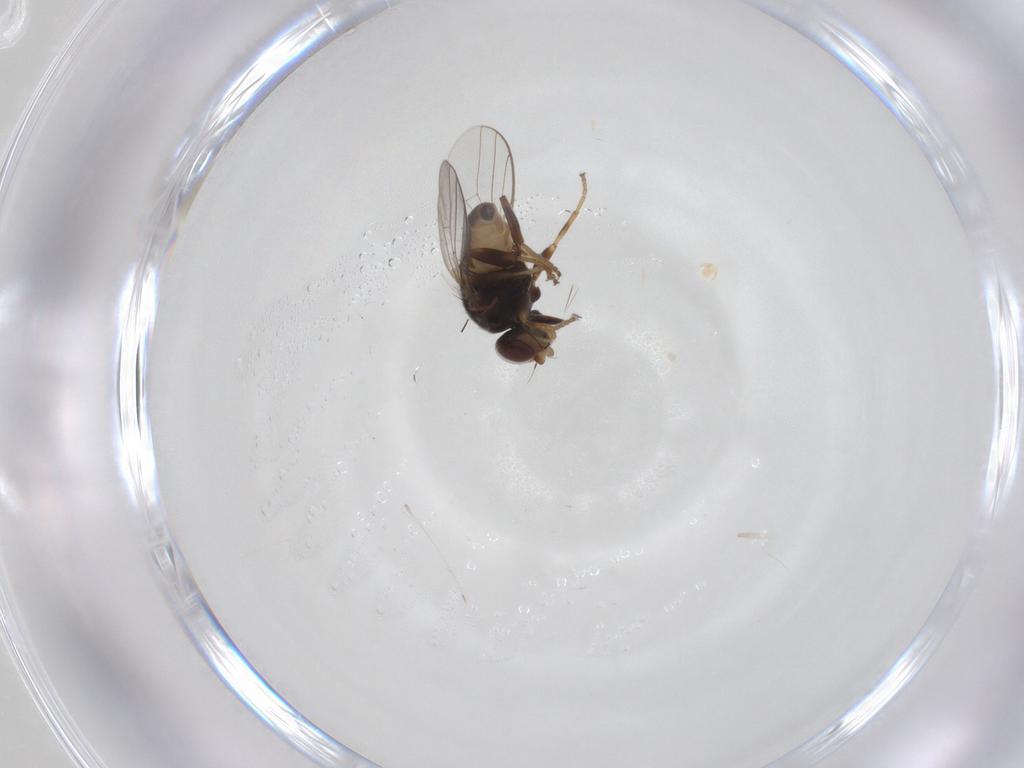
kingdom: Animalia
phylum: Arthropoda
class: Insecta
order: Diptera
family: Chloropidae
